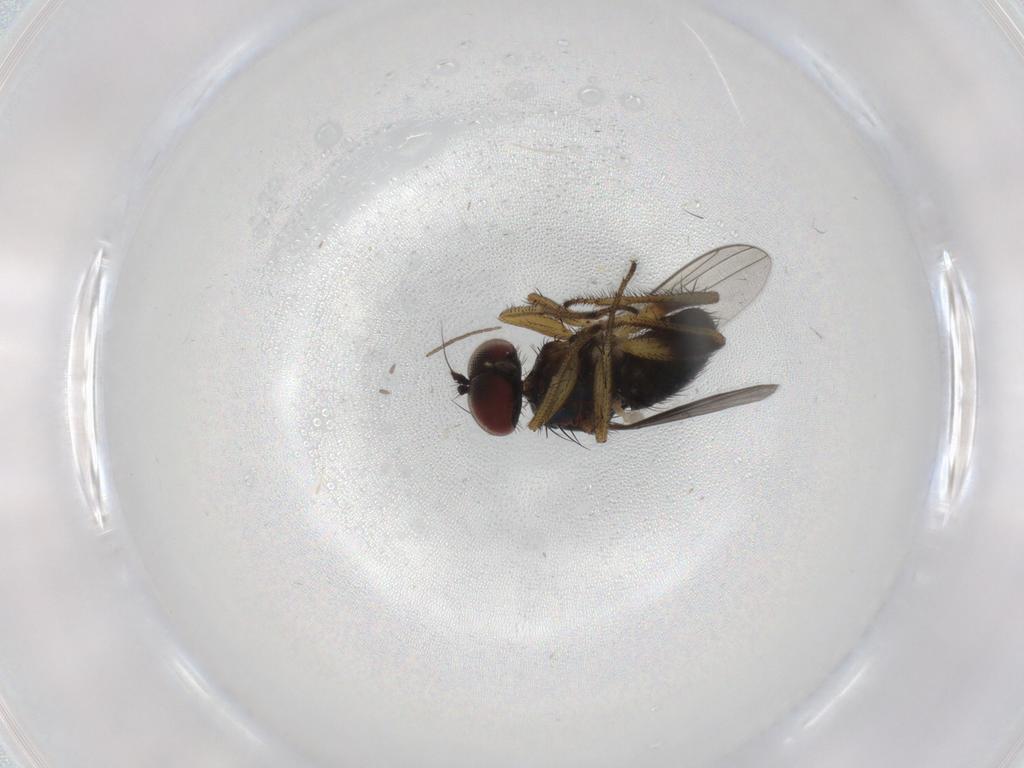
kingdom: Animalia
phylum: Arthropoda
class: Insecta
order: Diptera
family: Dolichopodidae
